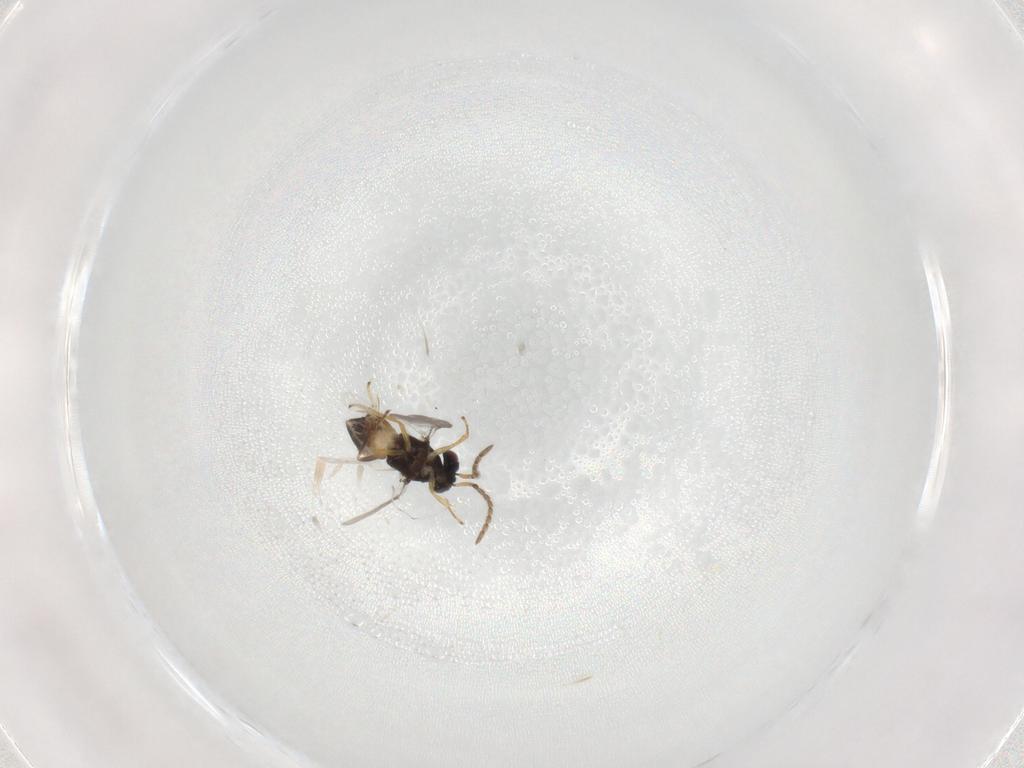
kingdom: Animalia
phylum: Arthropoda
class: Insecta
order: Hymenoptera
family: Encyrtidae
